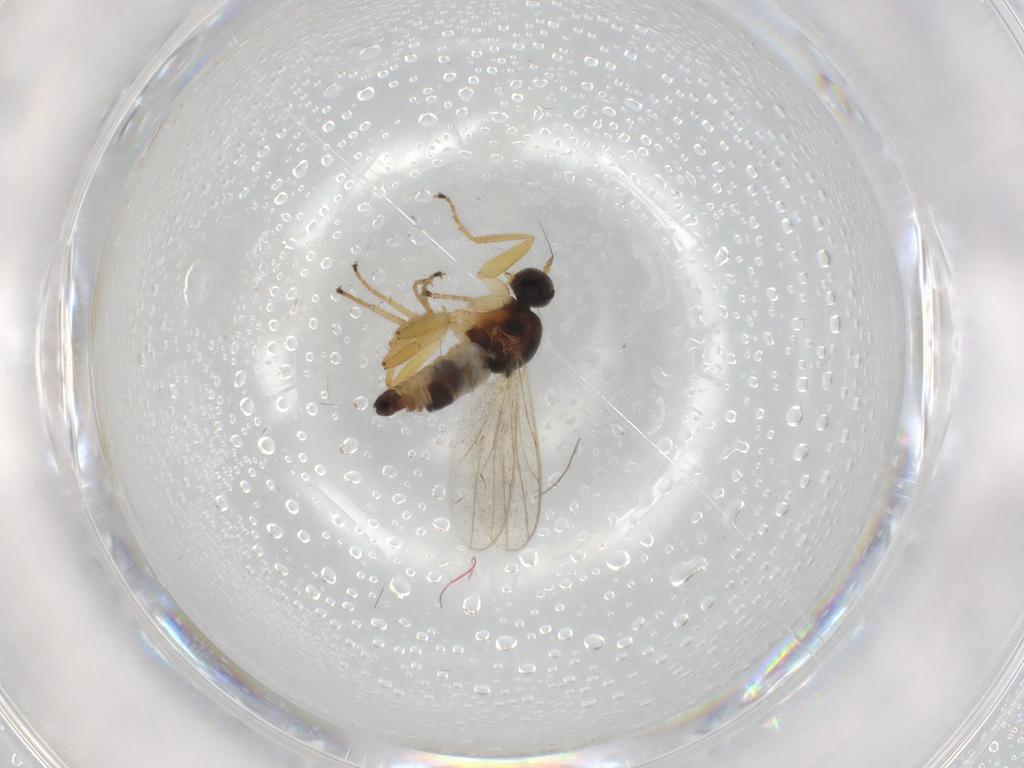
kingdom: Animalia
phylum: Arthropoda
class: Insecta
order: Diptera
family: Hybotidae
